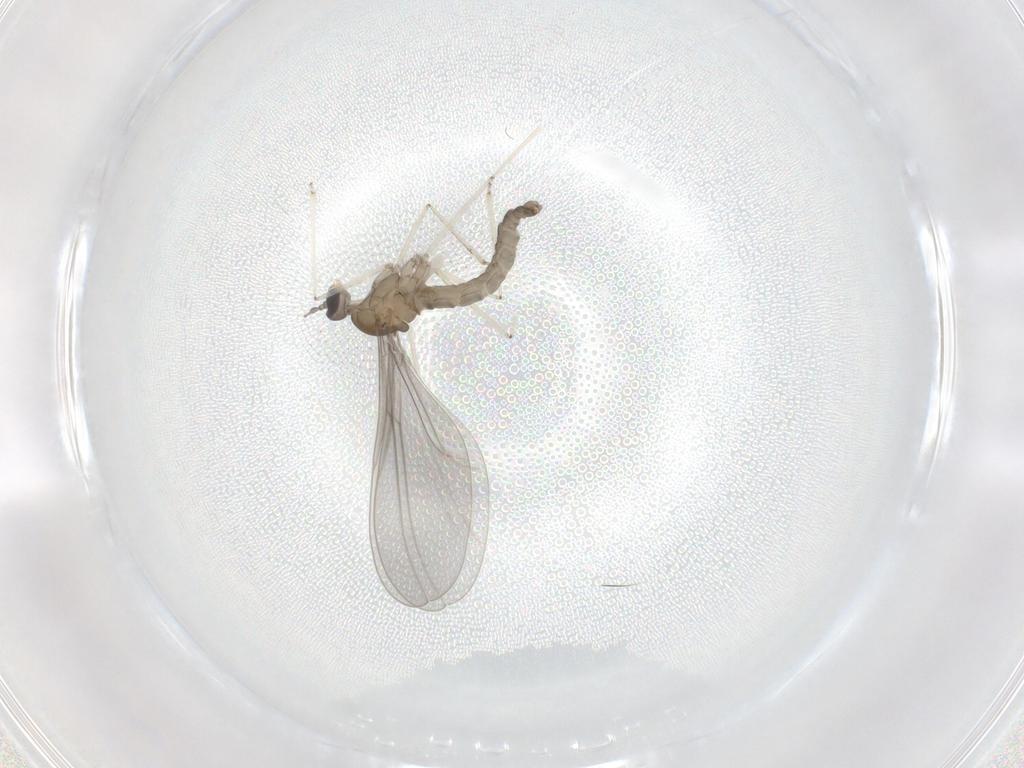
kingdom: Animalia
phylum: Arthropoda
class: Insecta
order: Diptera
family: Cecidomyiidae
